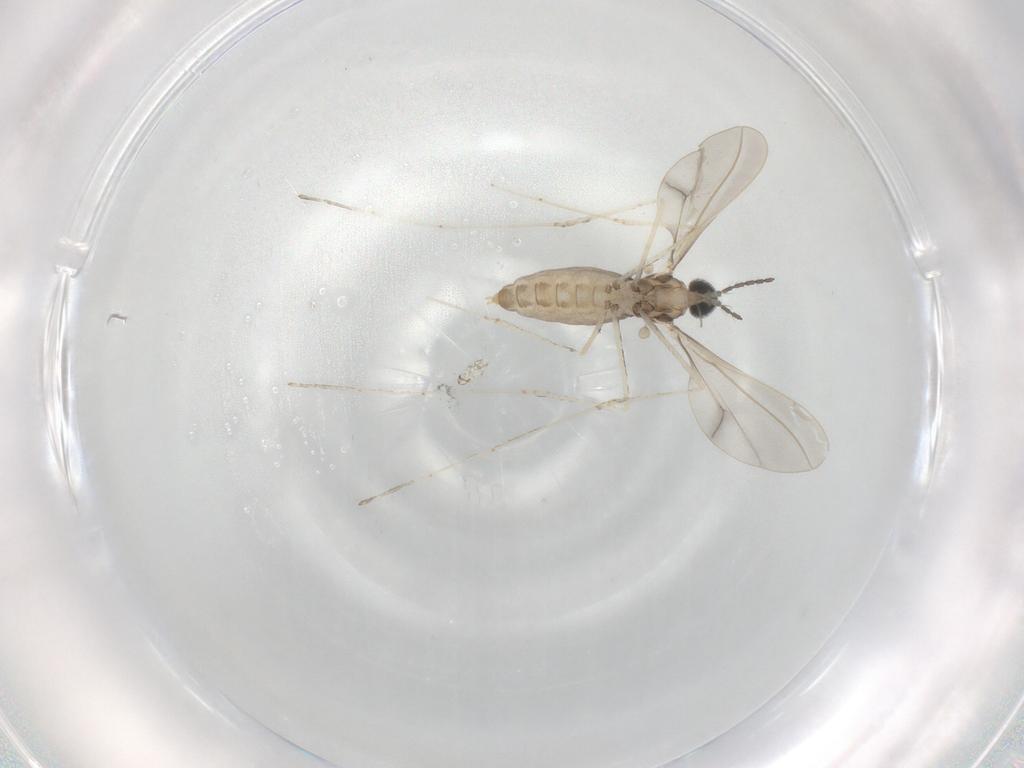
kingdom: Animalia
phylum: Arthropoda
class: Insecta
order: Diptera
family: Cecidomyiidae
